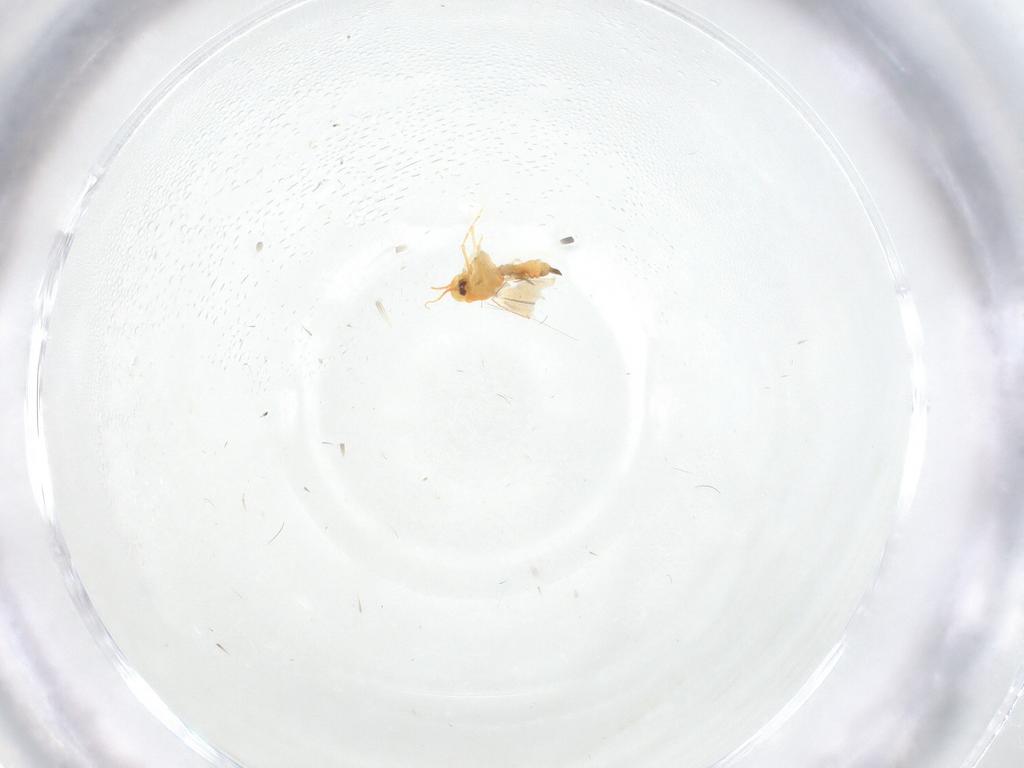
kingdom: Animalia
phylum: Arthropoda
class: Insecta
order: Hemiptera
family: Aleyrodidae
